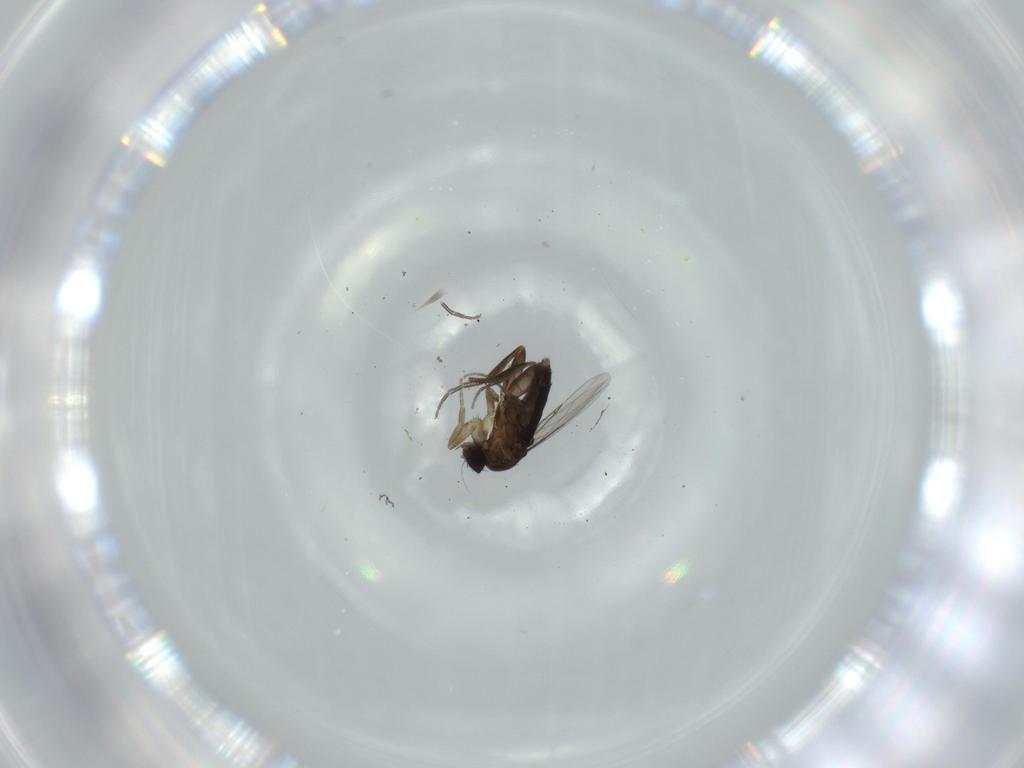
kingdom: Animalia
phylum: Arthropoda
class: Insecta
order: Diptera
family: Phoridae
